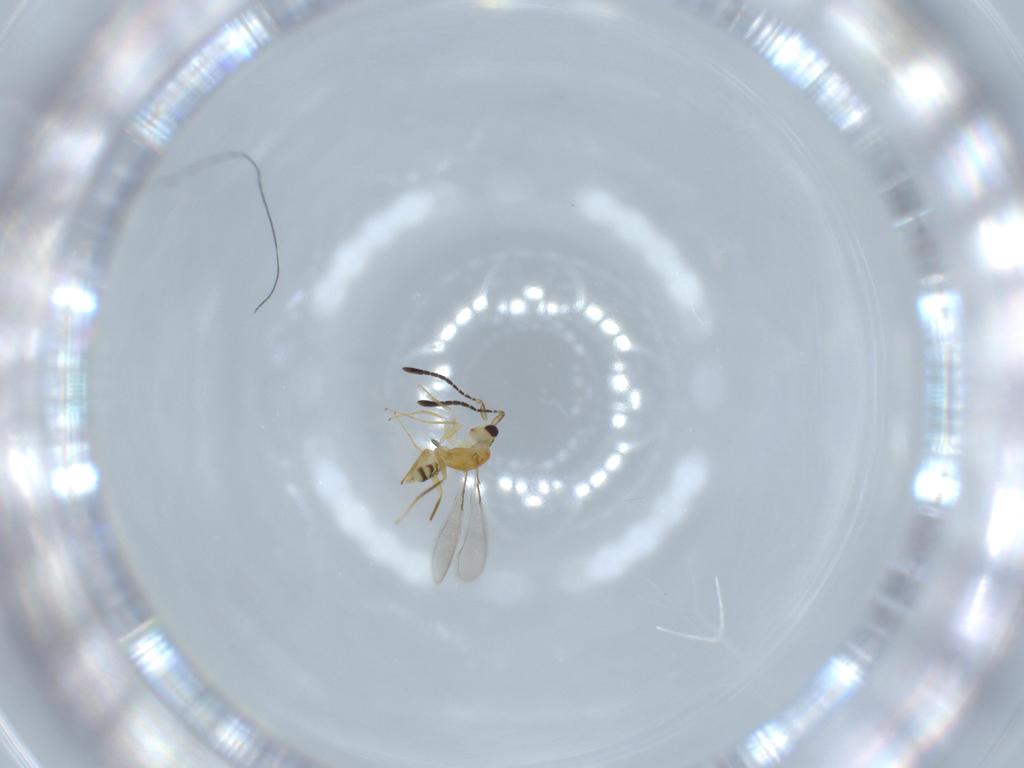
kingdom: Animalia
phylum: Arthropoda
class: Insecta
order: Hymenoptera
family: Mymaridae
